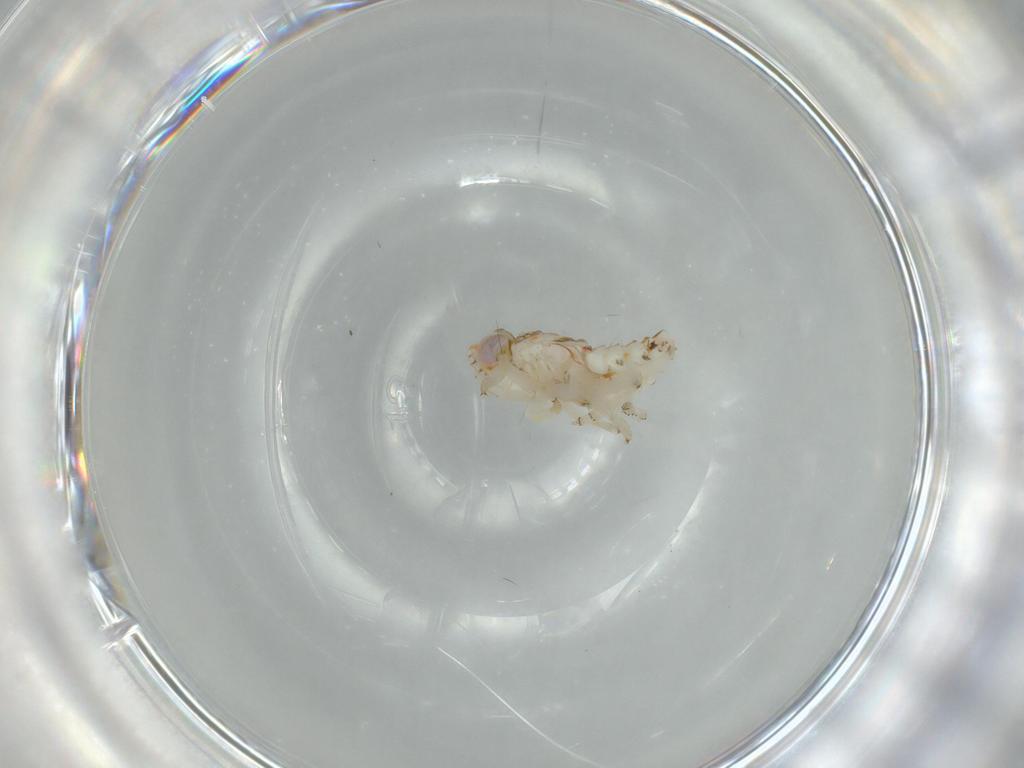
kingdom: Animalia
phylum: Arthropoda
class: Insecta
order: Hemiptera
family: Nogodinidae
